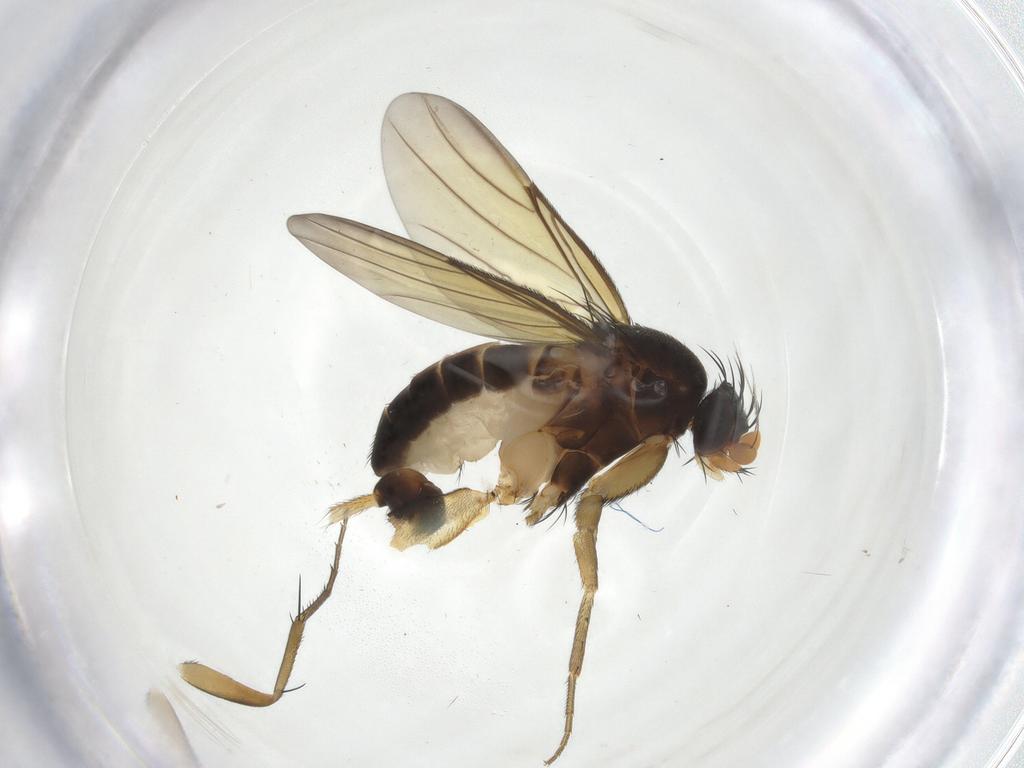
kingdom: Animalia
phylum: Arthropoda
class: Insecta
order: Diptera
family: Phoridae
